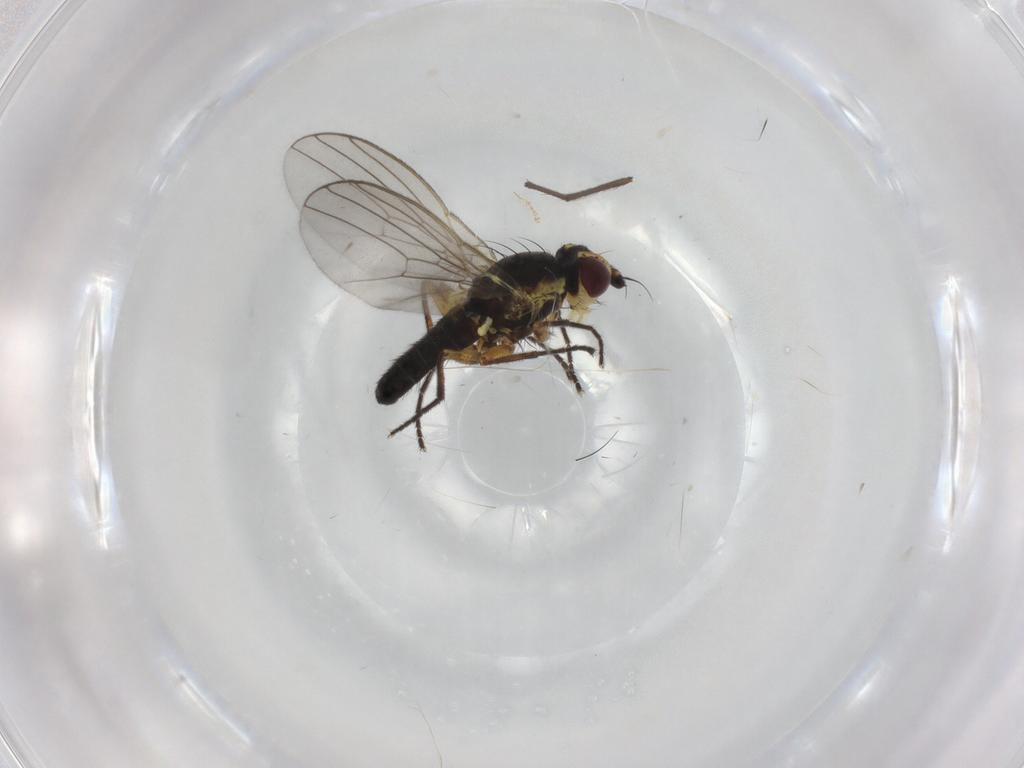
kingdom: Animalia
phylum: Arthropoda
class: Insecta
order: Diptera
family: Agromyzidae
